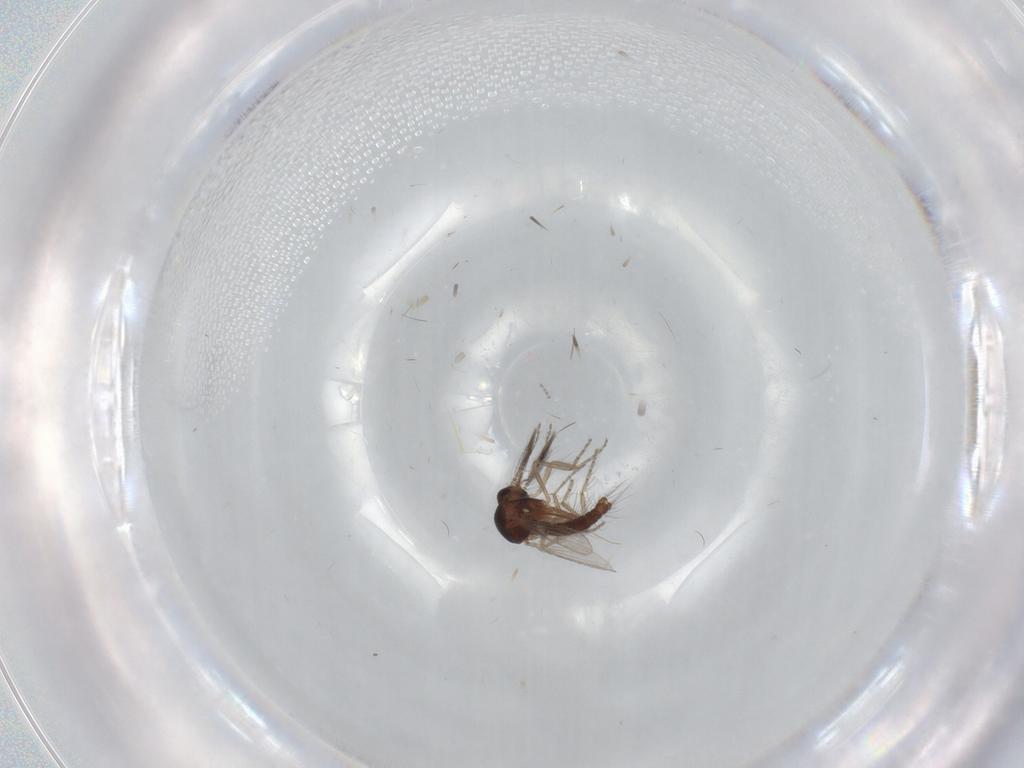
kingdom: Animalia
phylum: Arthropoda
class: Insecta
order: Diptera
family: Ceratopogonidae
